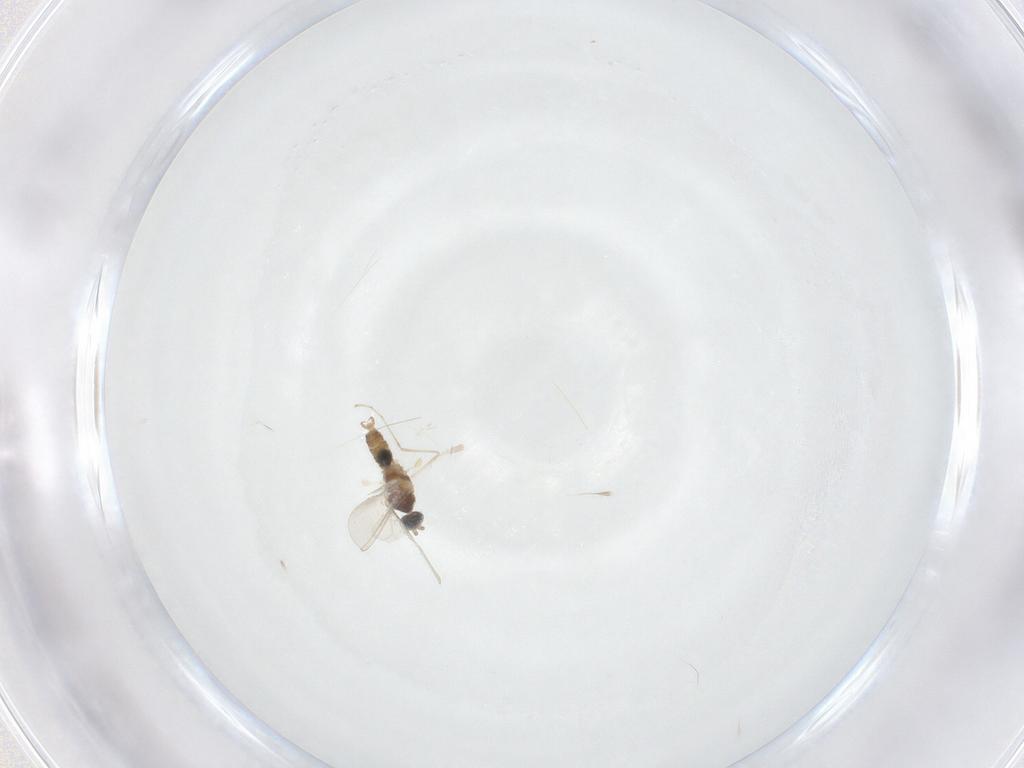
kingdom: Animalia
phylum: Arthropoda
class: Insecta
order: Diptera
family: Cecidomyiidae
